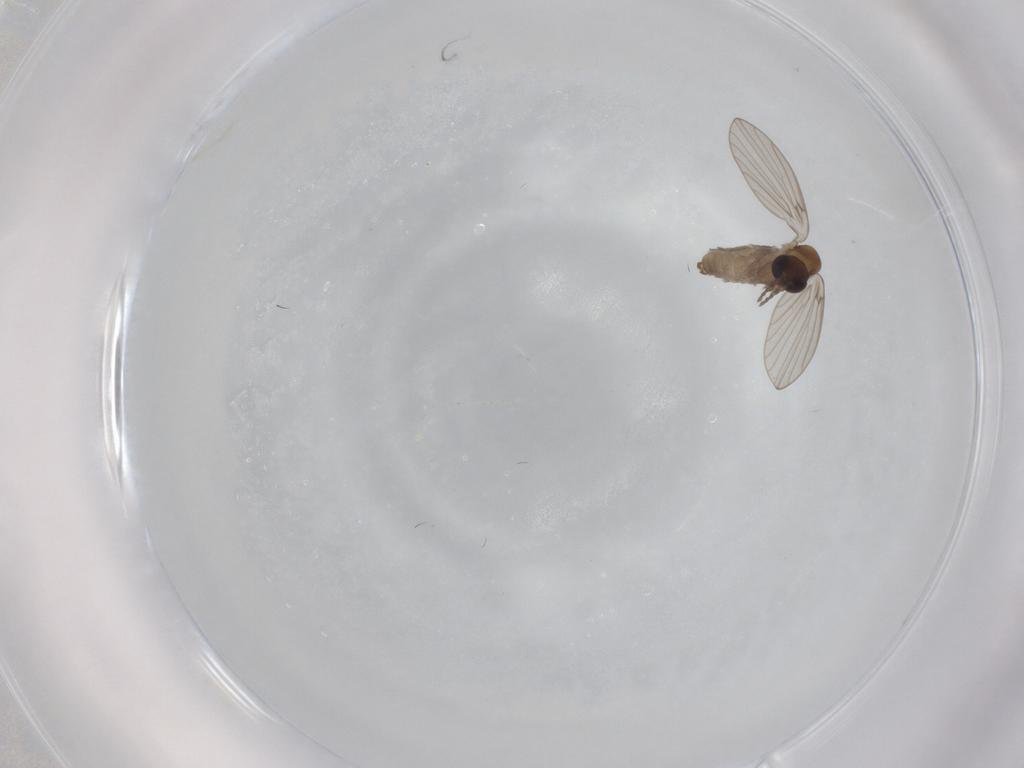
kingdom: Animalia
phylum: Arthropoda
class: Insecta
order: Diptera
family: Psychodidae
